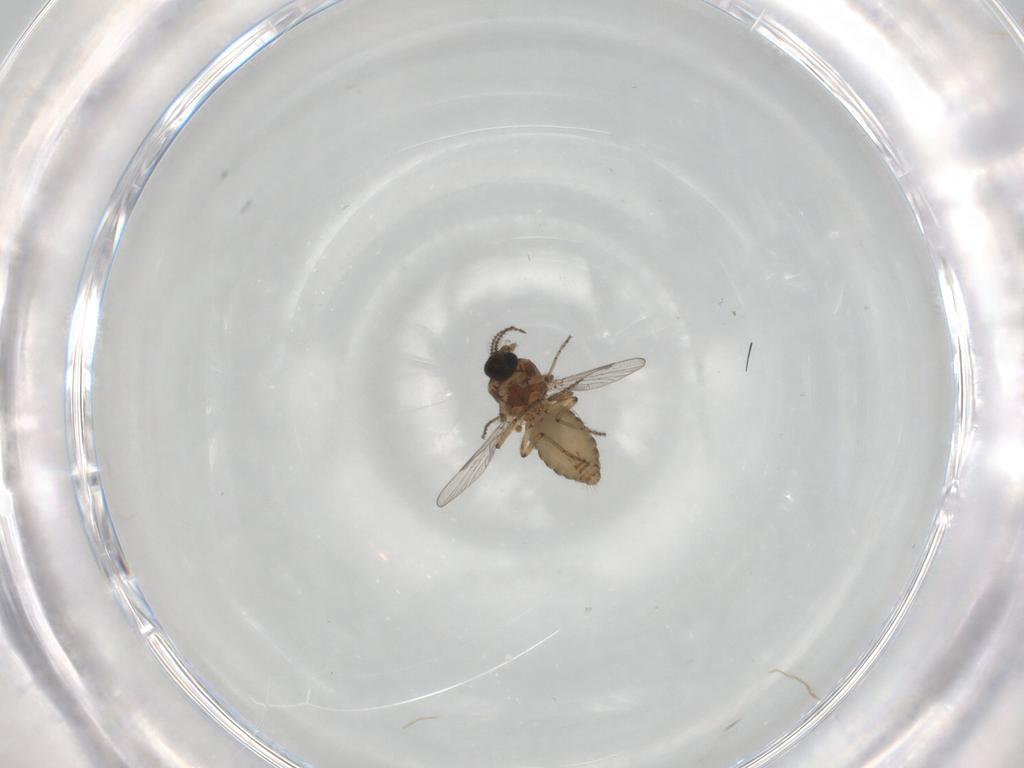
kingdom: Animalia
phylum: Arthropoda
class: Insecta
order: Diptera
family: Ceratopogonidae
